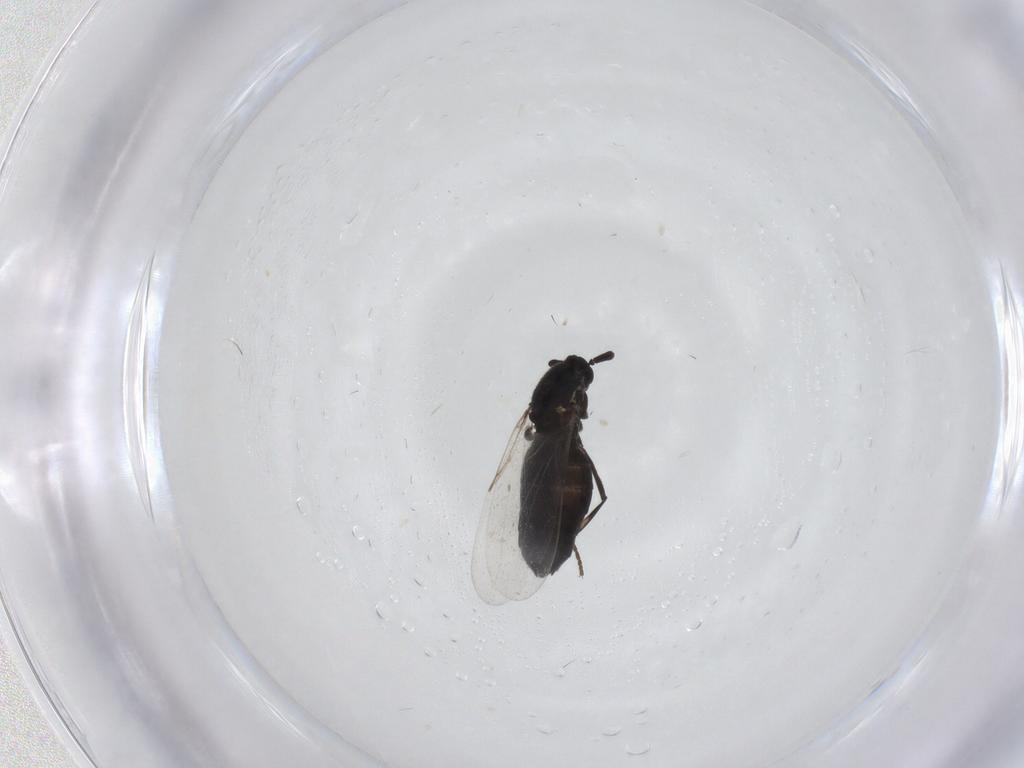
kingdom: Animalia
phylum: Arthropoda
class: Insecta
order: Diptera
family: Scatopsidae
